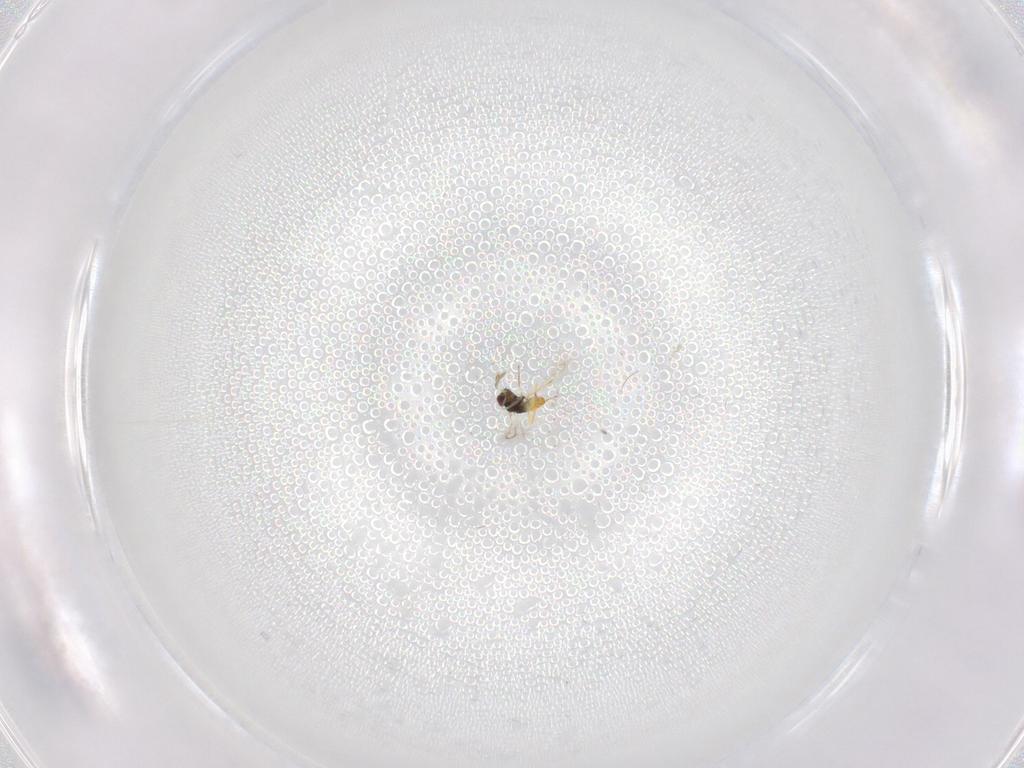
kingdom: Animalia
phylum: Arthropoda
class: Insecta
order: Hymenoptera
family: Eulophidae
